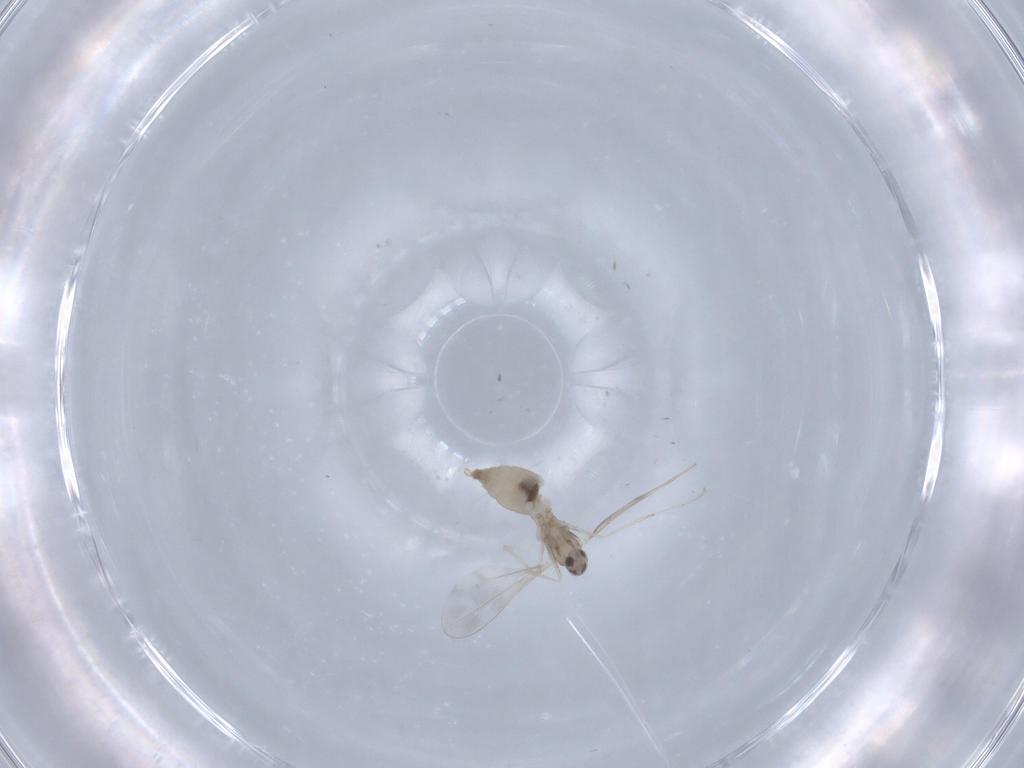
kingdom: Animalia
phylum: Arthropoda
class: Insecta
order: Diptera
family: Cecidomyiidae
